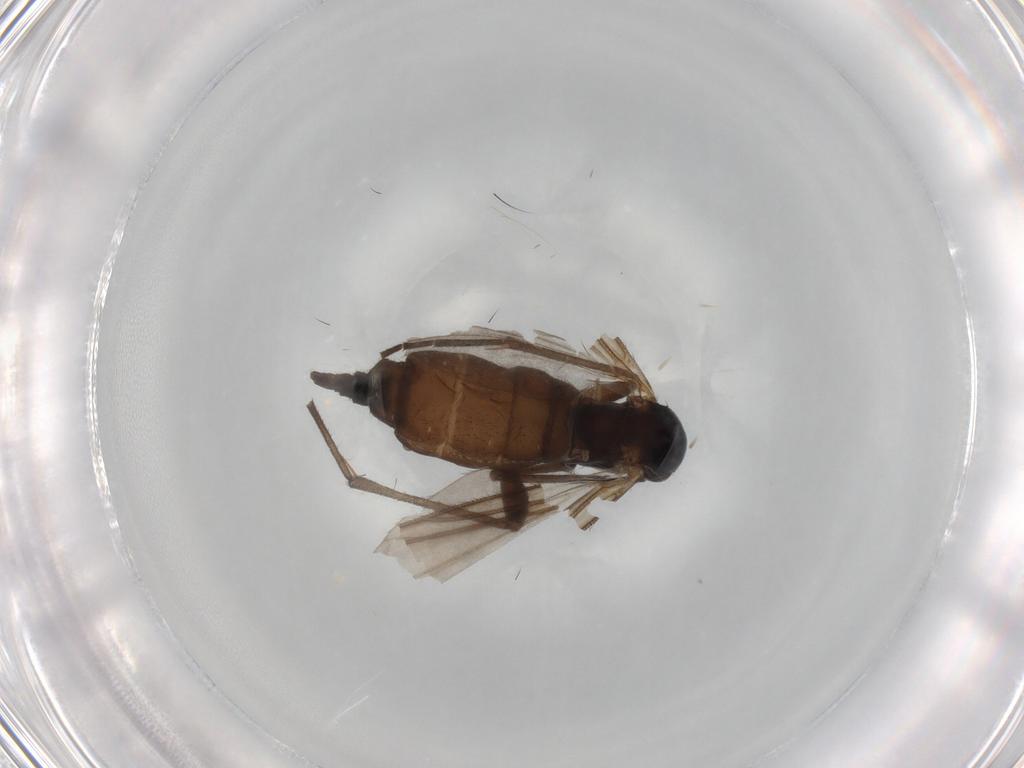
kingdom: Animalia
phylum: Arthropoda
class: Insecta
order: Diptera
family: Sciaridae
